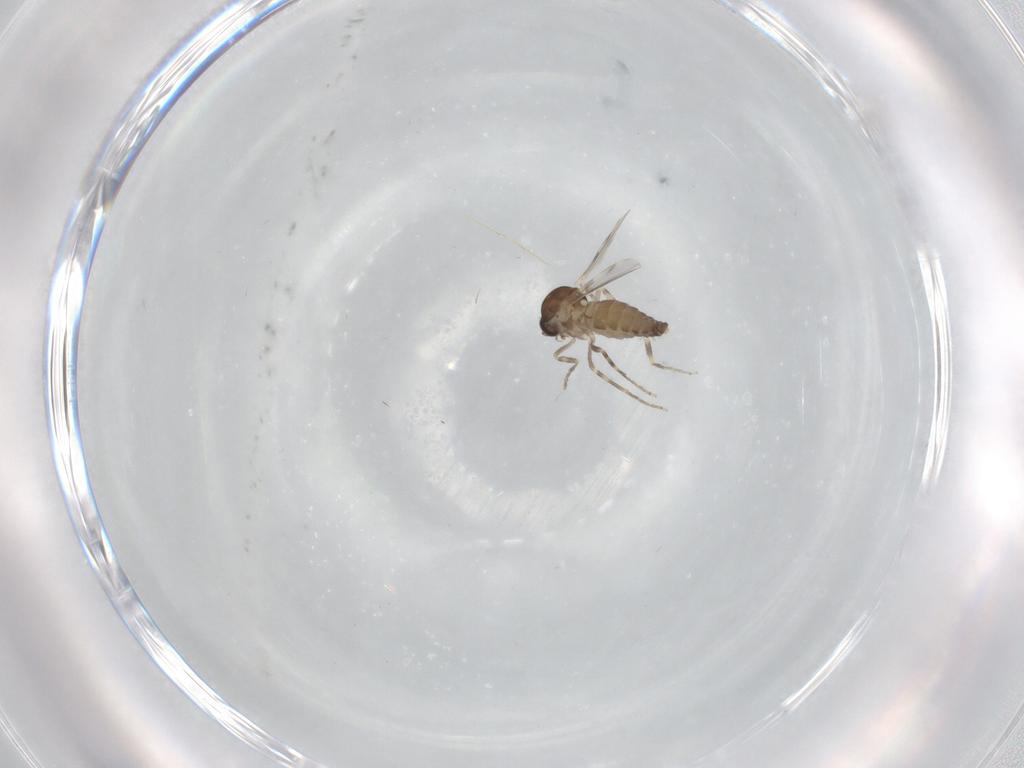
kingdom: Animalia
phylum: Arthropoda
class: Insecta
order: Diptera
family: Ceratopogonidae
